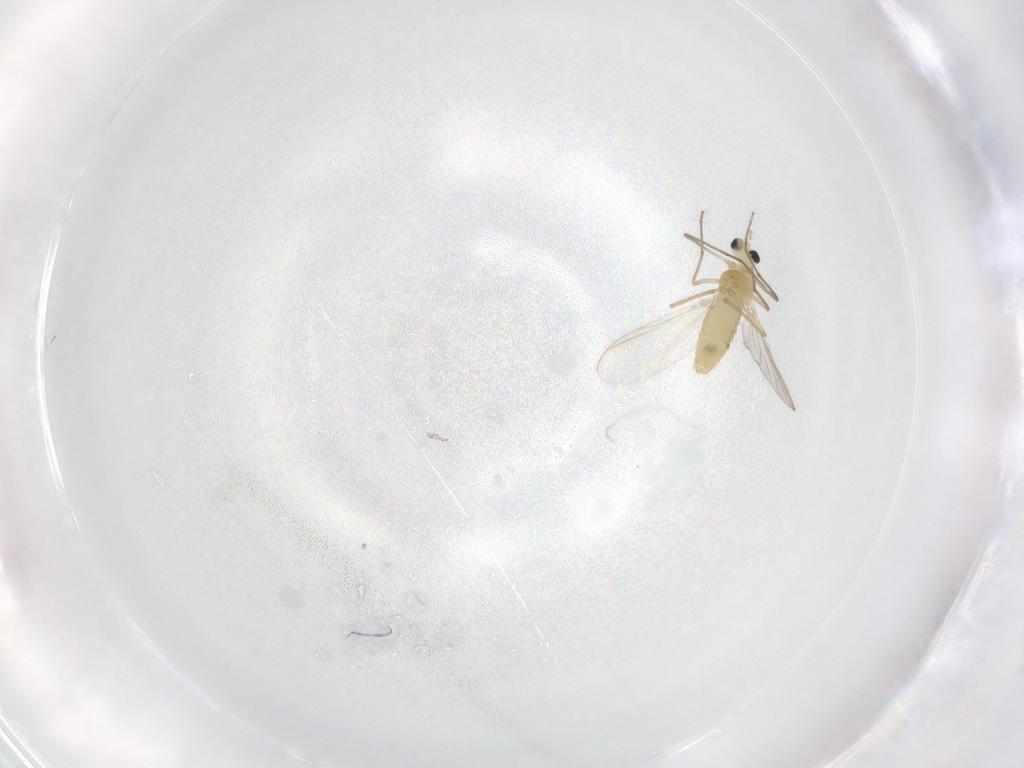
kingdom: Animalia
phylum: Arthropoda
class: Insecta
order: Diptera
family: Chironomidae
